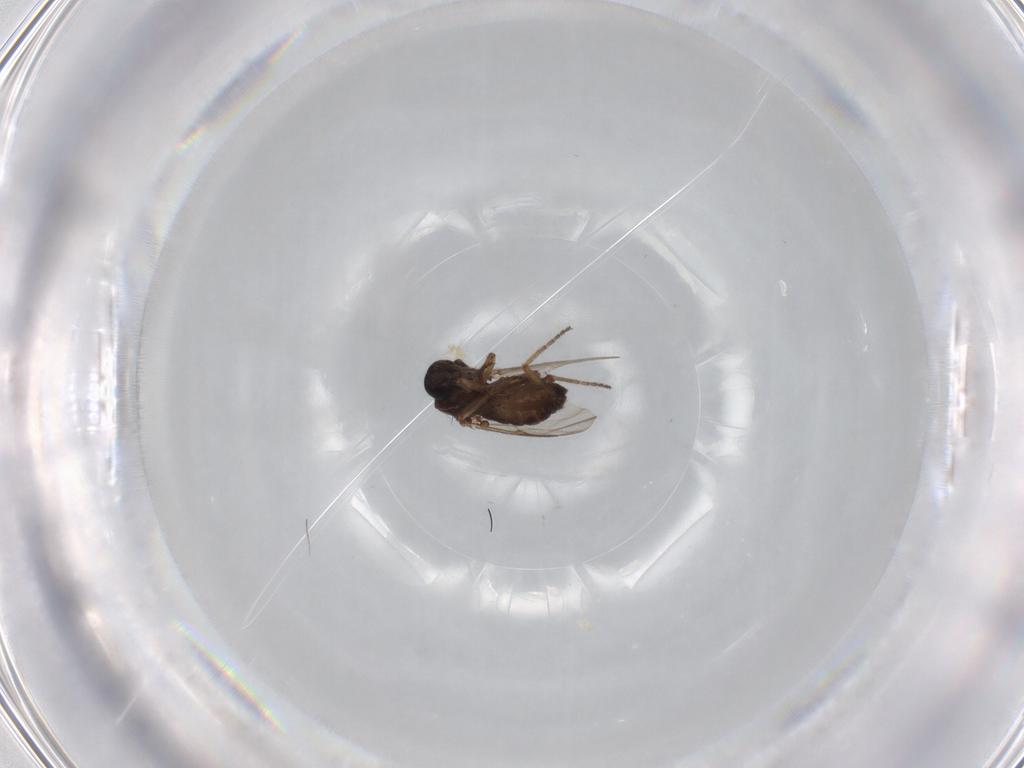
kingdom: Animalia
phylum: Arthropoda
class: Insecta
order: Diptera
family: Ceratopogonidae
